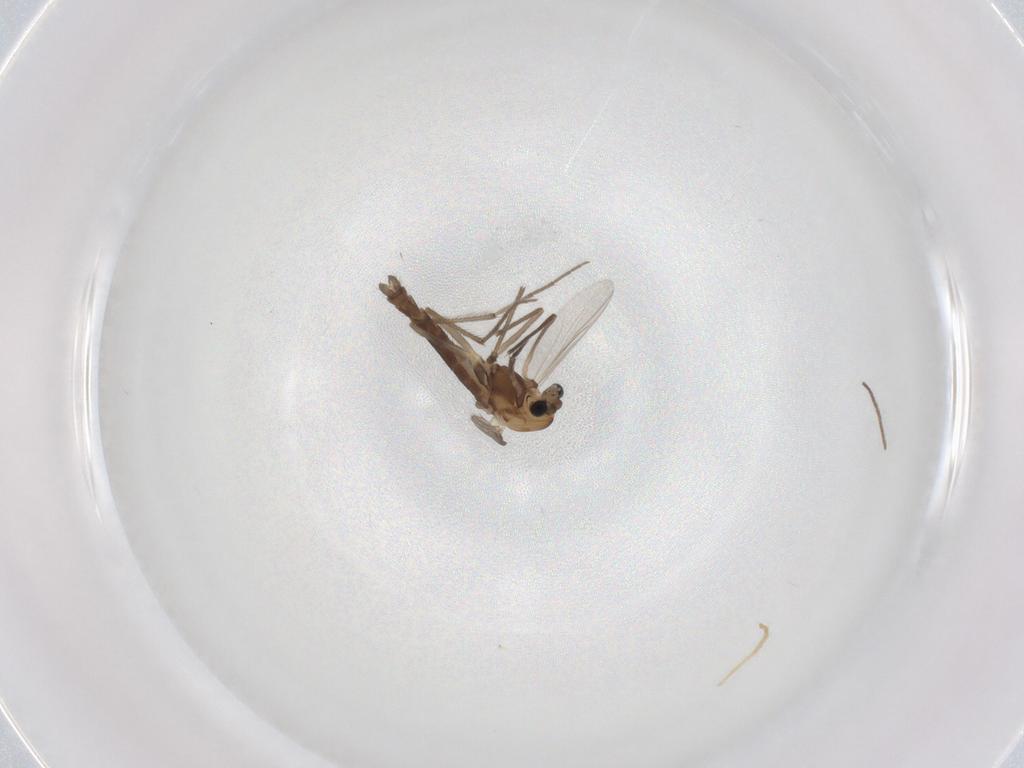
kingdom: Animalia
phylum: Arthropoda
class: Insecta
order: Diptera
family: Chironomidae
